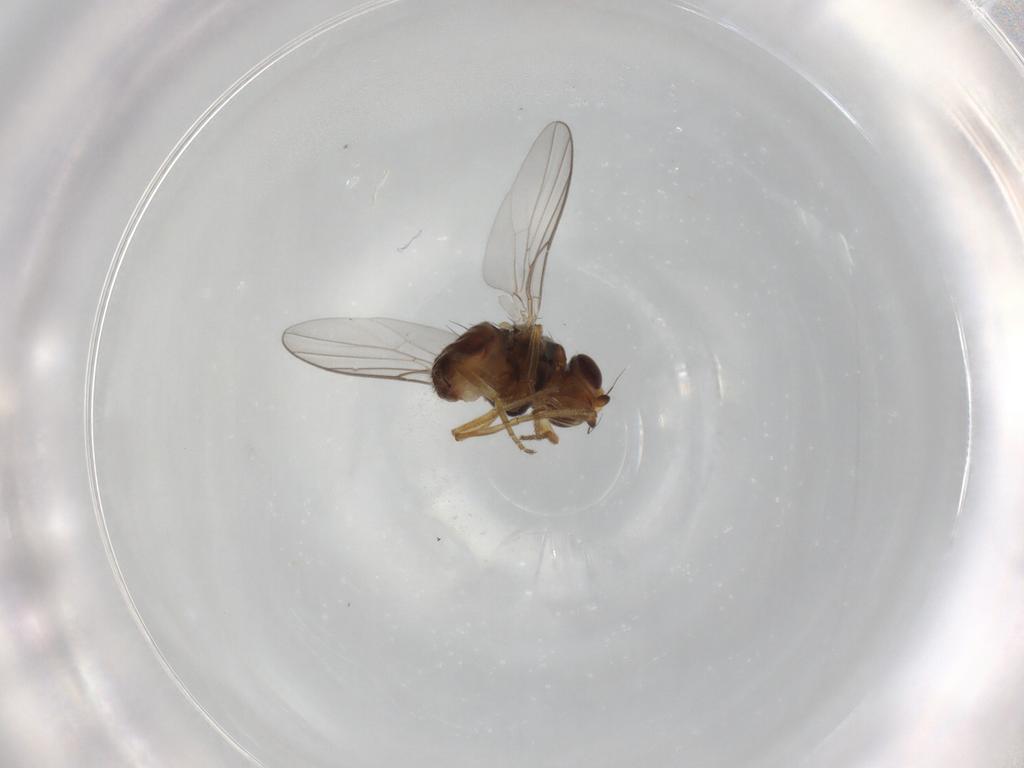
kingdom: Animalia
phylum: Arthropoda
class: Insecta
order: Diptera
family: Chloropidae
